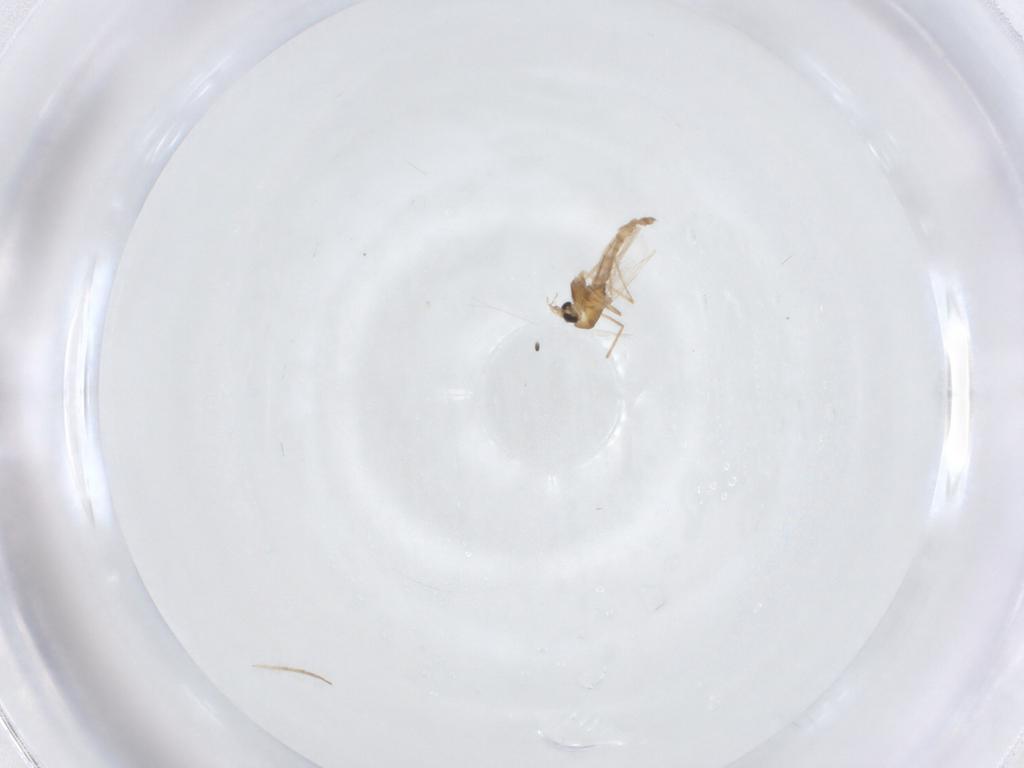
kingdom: Animalia
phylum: Arthropoda
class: Insecta
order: Diptera
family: Chironomidae
